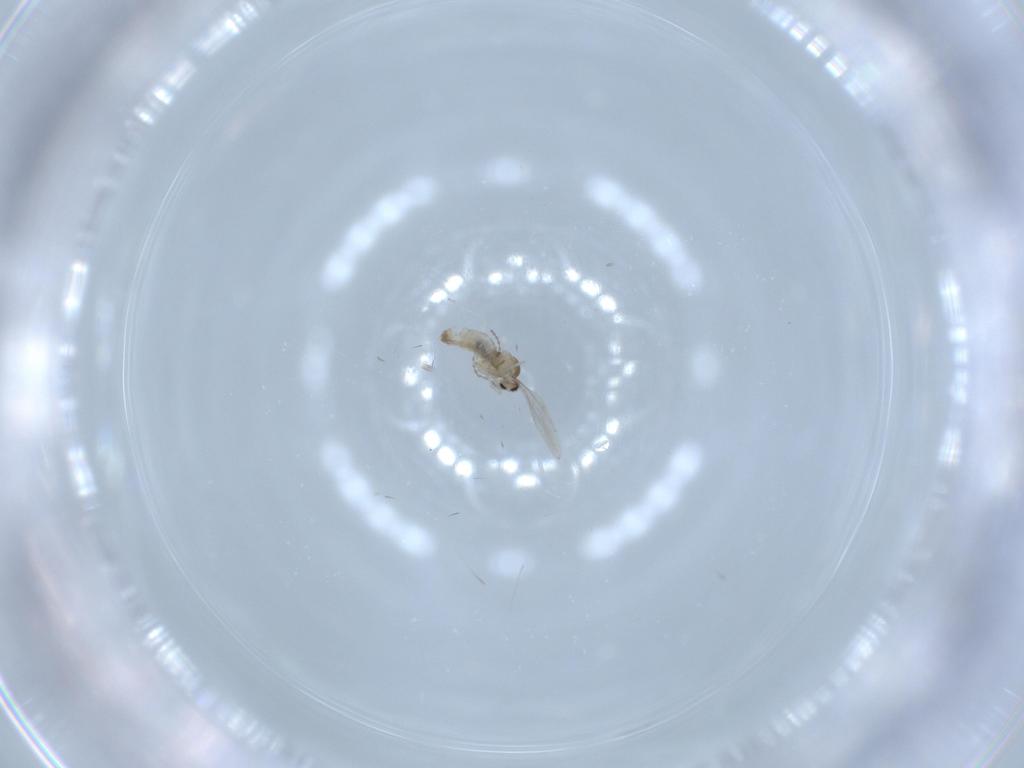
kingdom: Animalia
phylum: Arthropoda
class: Insecta
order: Diptera
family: Cecidomyiidae
